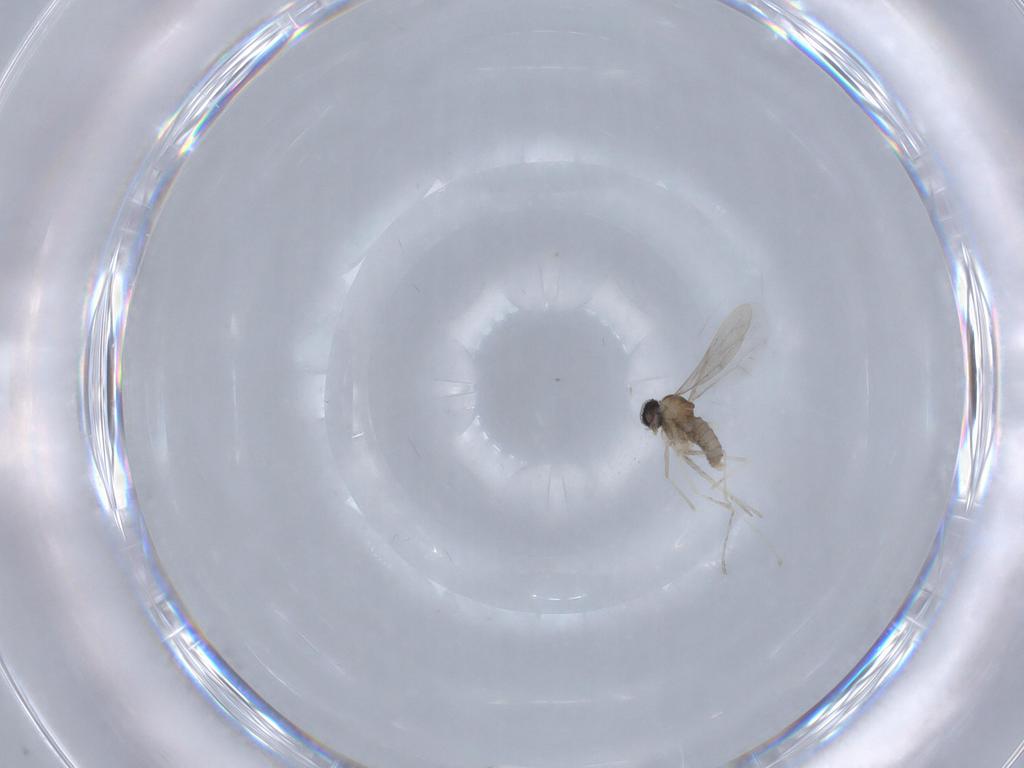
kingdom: Animalia
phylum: Arthropoda
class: Insecta
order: Diptera
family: Cecidomyiidae
